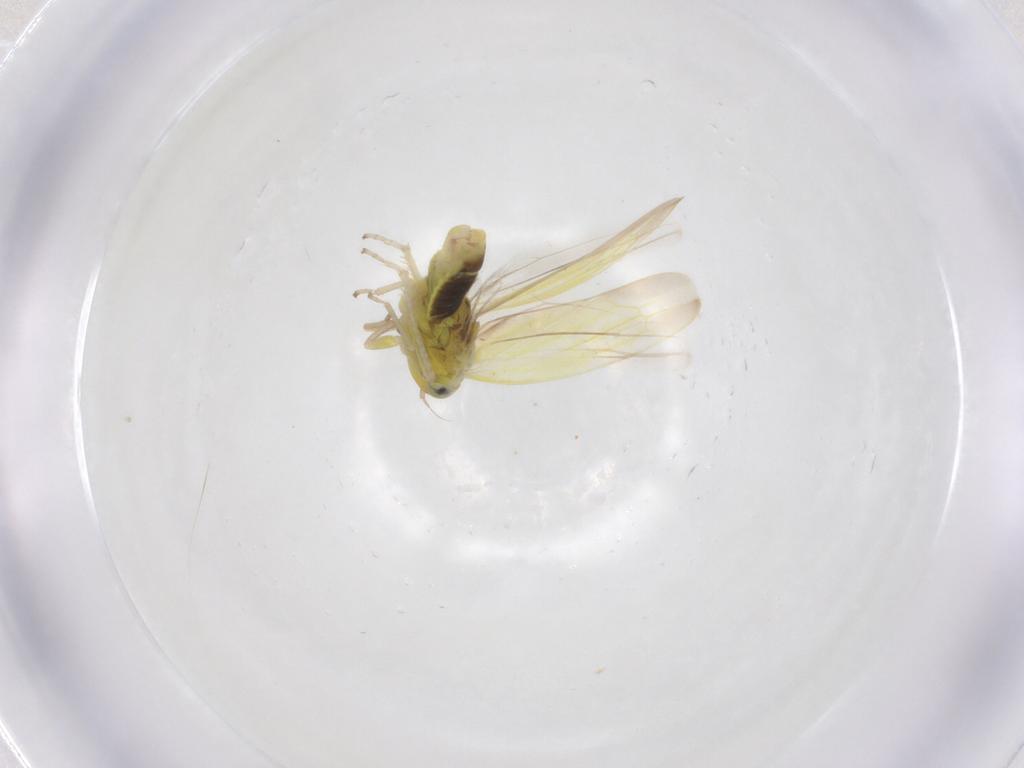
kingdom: Animalia
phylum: Arthropoda
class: Insecta
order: Hemiptera
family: Cicadellidae
